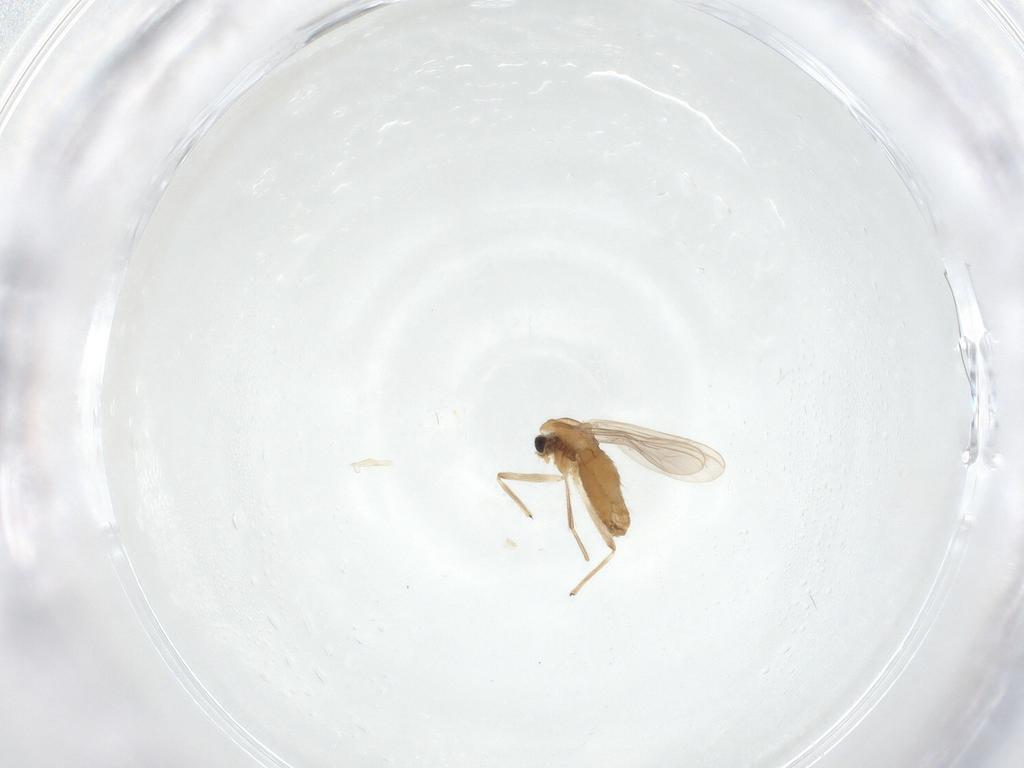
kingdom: Animalia
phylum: Arthropoda
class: Insecta
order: Diptera
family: Chironomidae
